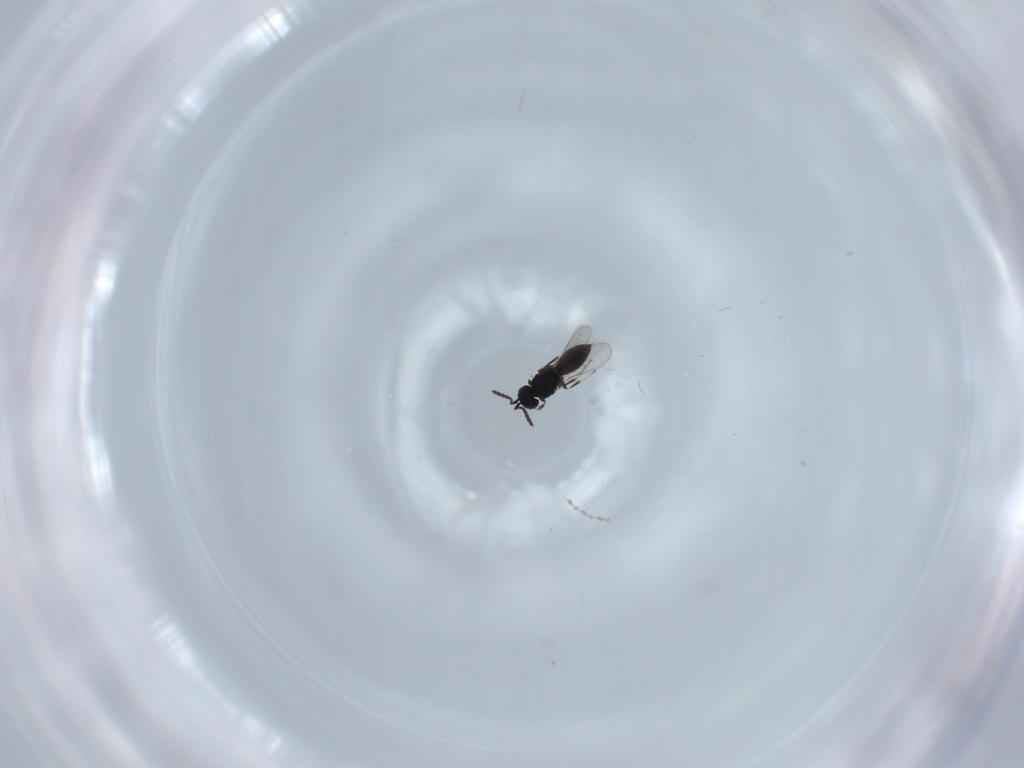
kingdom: Animalia
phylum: Arthropoda
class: Insecta
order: Hymenoptera
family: Scelionidae
